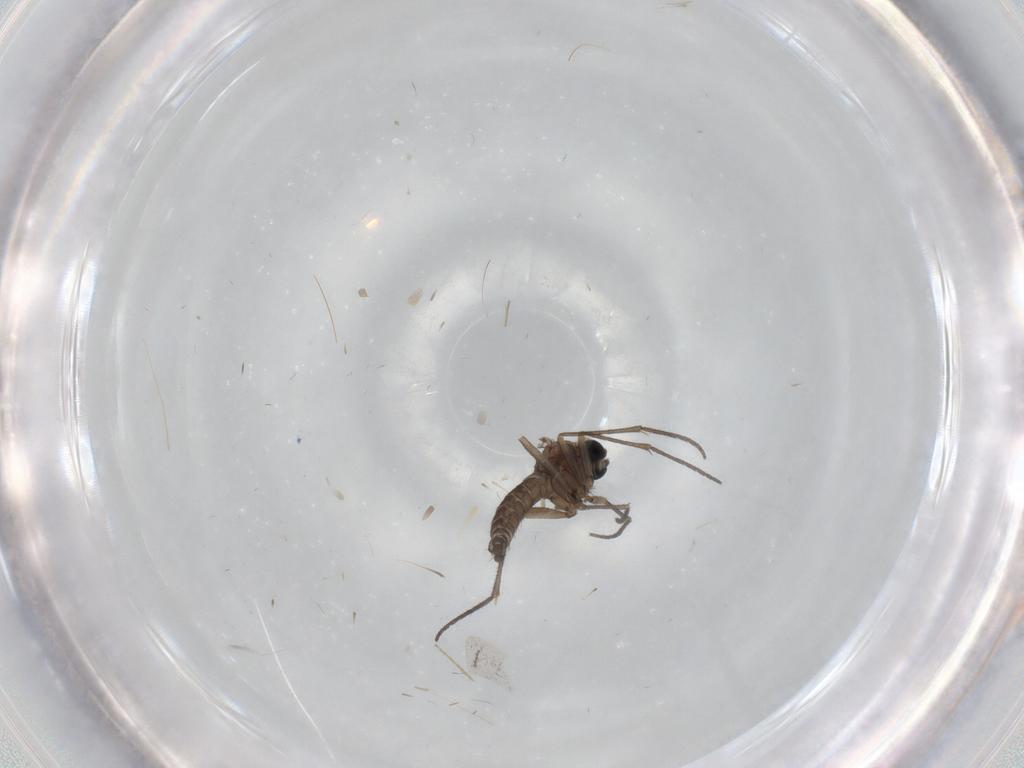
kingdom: Animalia
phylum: Arthropoda
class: Insecta
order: Diptera
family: Sciaridae
